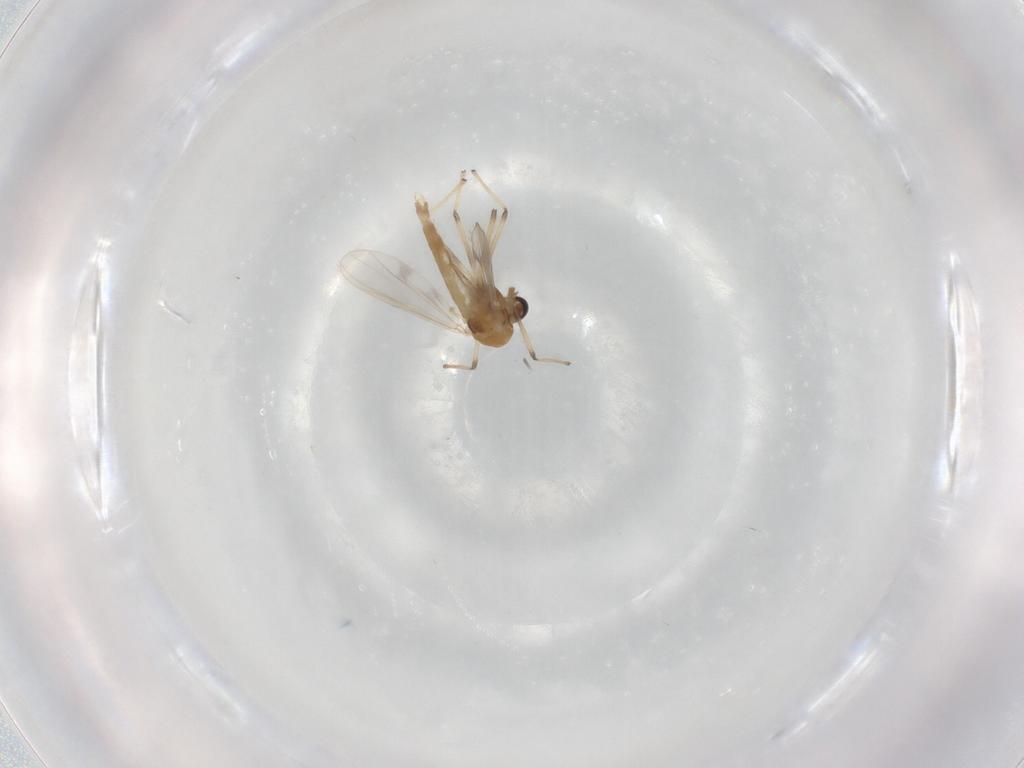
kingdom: Animalia
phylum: Arthropoda
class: Insecta
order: Diptera
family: Chironomidae
